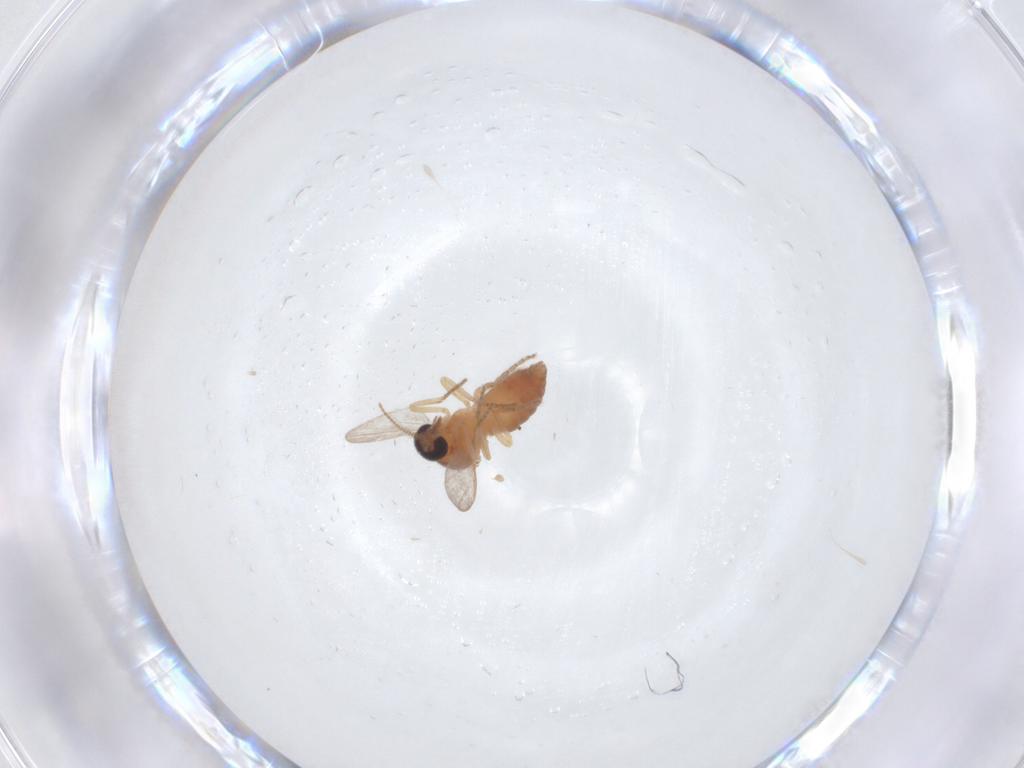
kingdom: Animalia
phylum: Arthropoda
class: Insecta
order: Diptera
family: Ceratopogonidae
